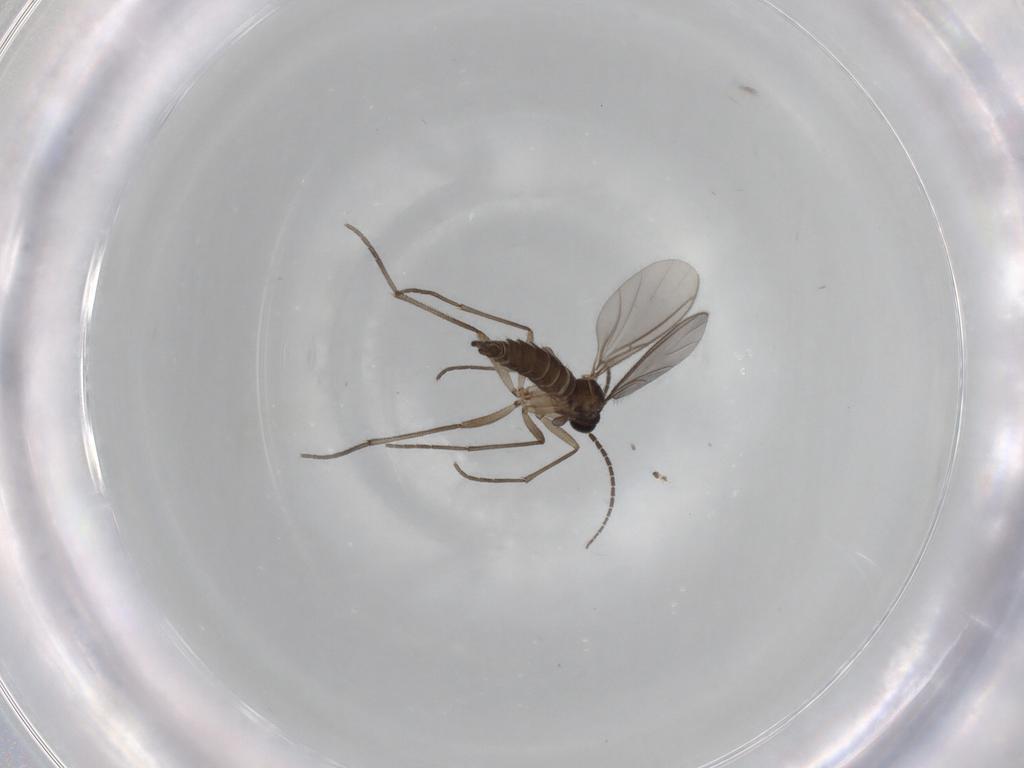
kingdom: Animalia
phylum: Arthropoda
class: Insecta
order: Diptera
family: Sciaridae
